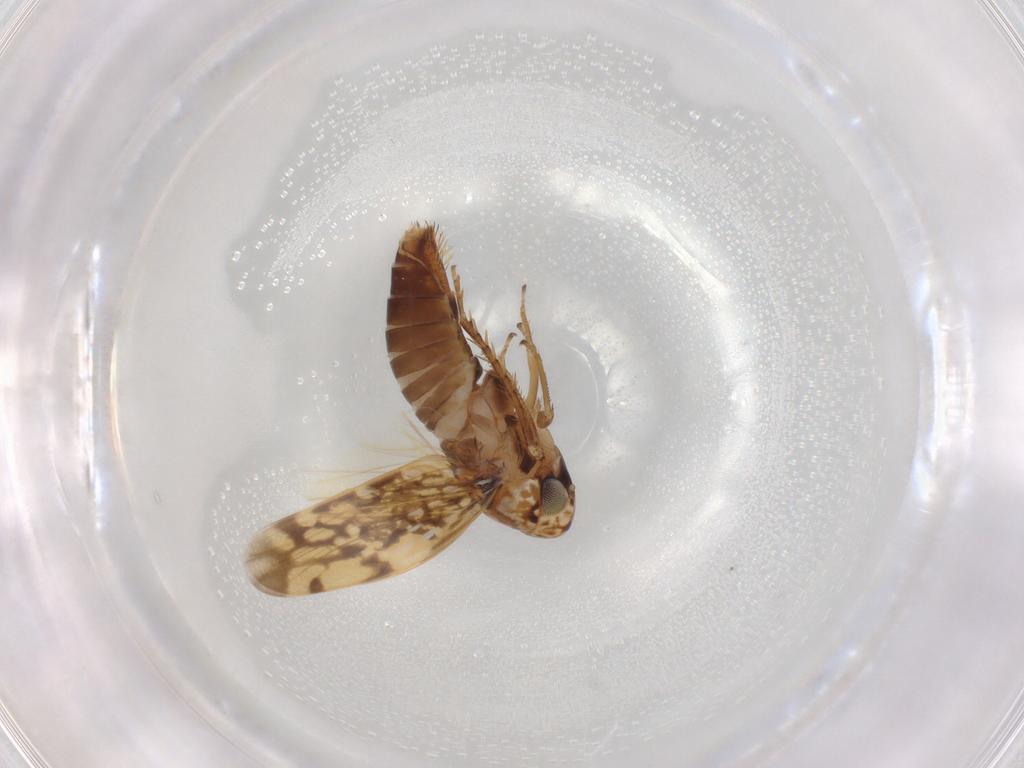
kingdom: Animalia
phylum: Arthropoda
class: Insecta
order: Hemiptera
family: Cicadellidae
